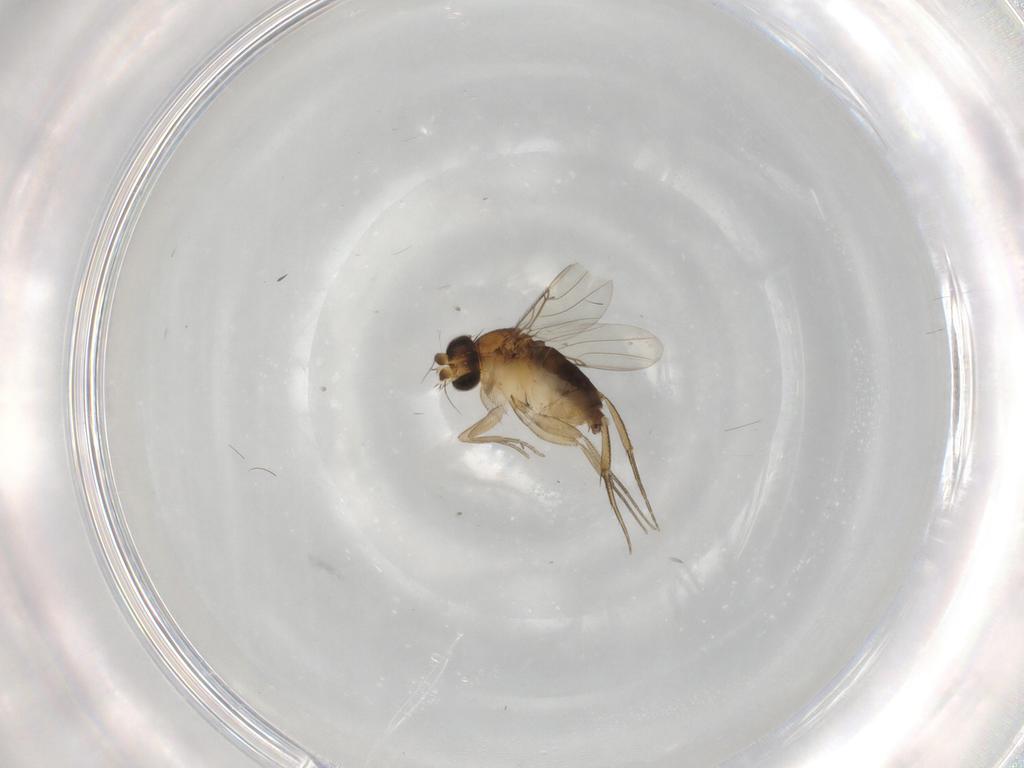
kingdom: Animalia
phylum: Arthropoda
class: Insecta
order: Diptera
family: Phoridae
